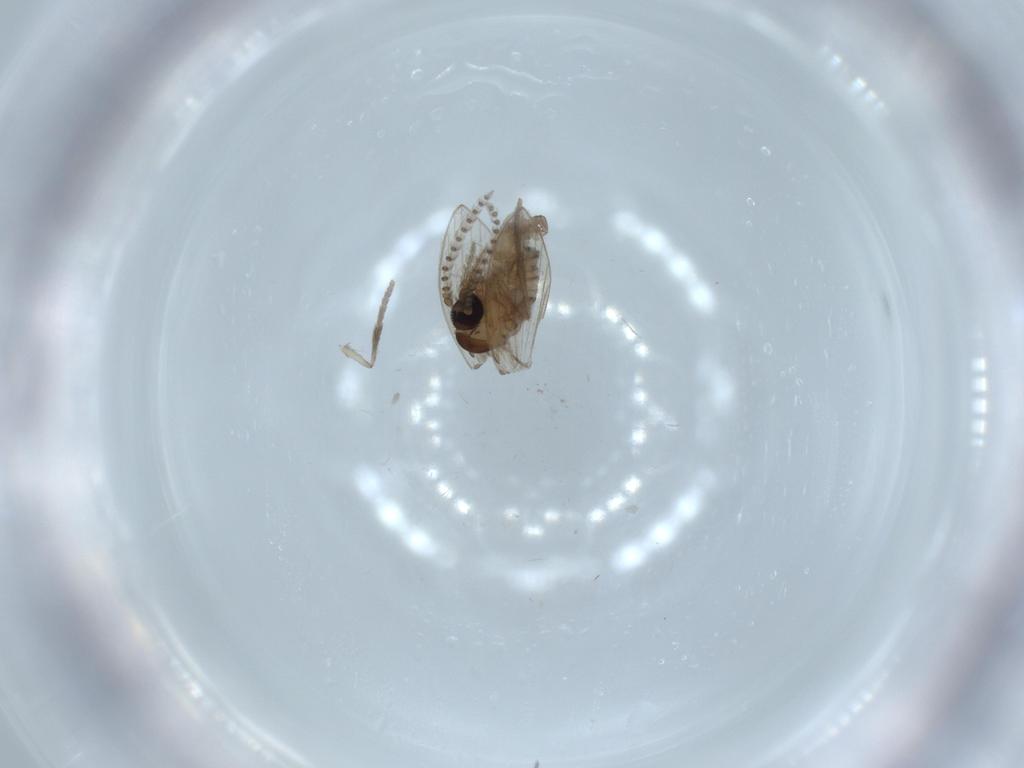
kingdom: Animalia
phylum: Arthropoda
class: Insecta
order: Diptera
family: Psychodidae
